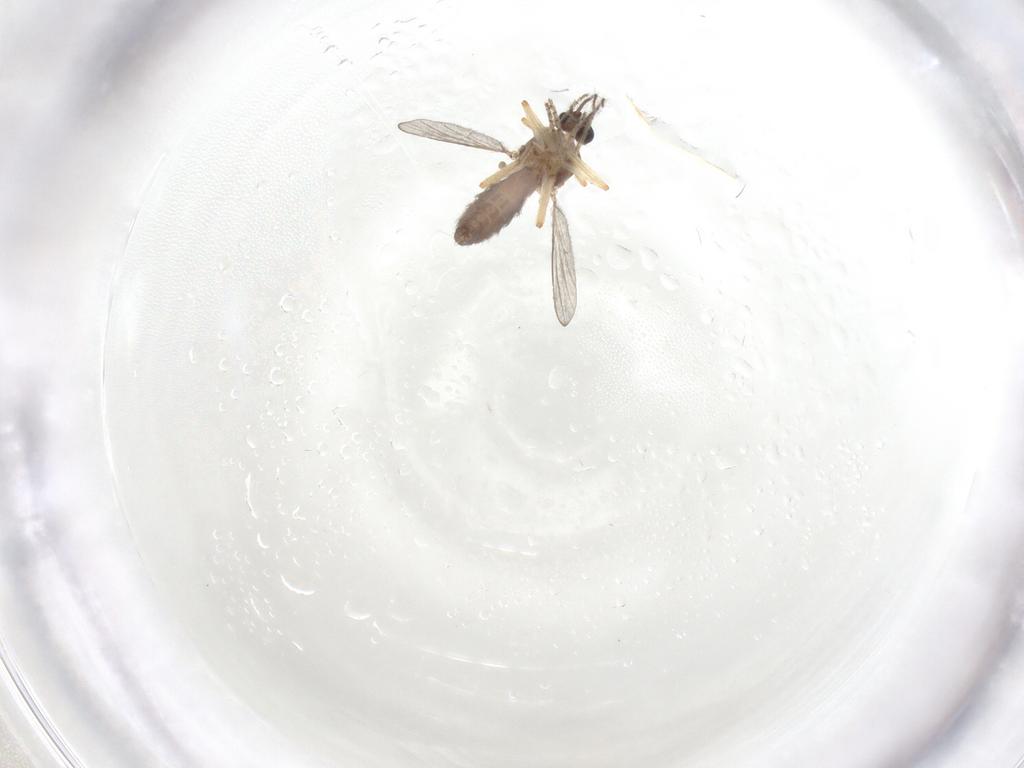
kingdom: Animalia
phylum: Arthropoda
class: Insecta
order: Diptera
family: Ceratopogonidae
